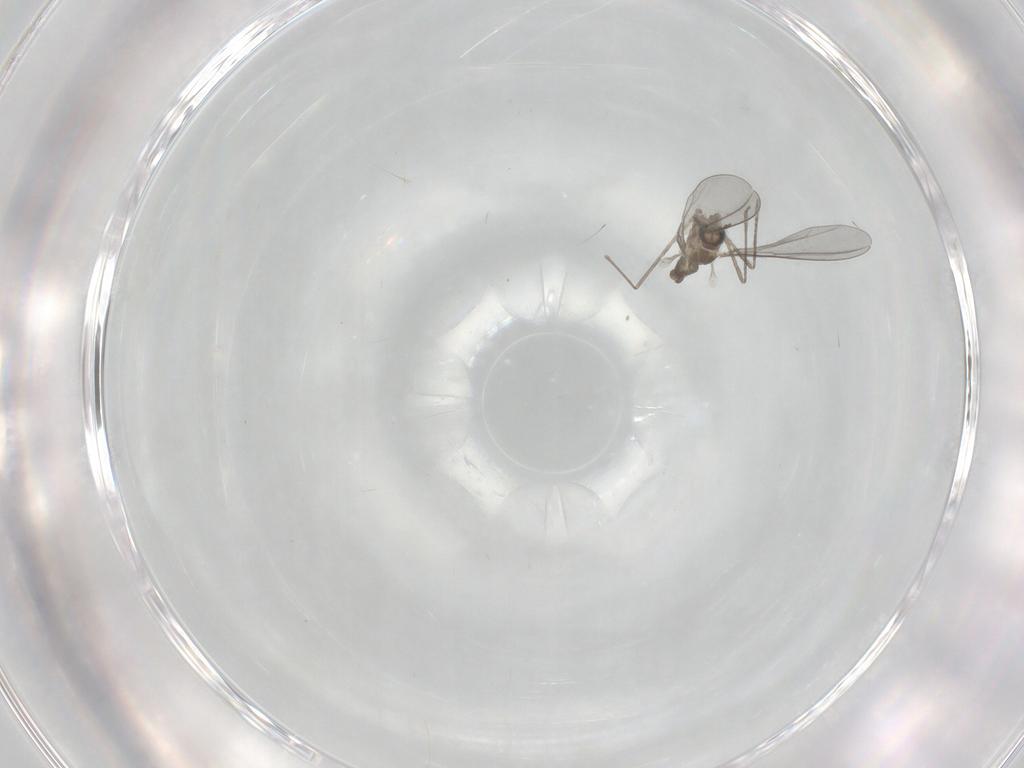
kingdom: Animalia
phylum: Arthropoda
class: Insecta
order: Diptera
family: Cecidomyiidae
